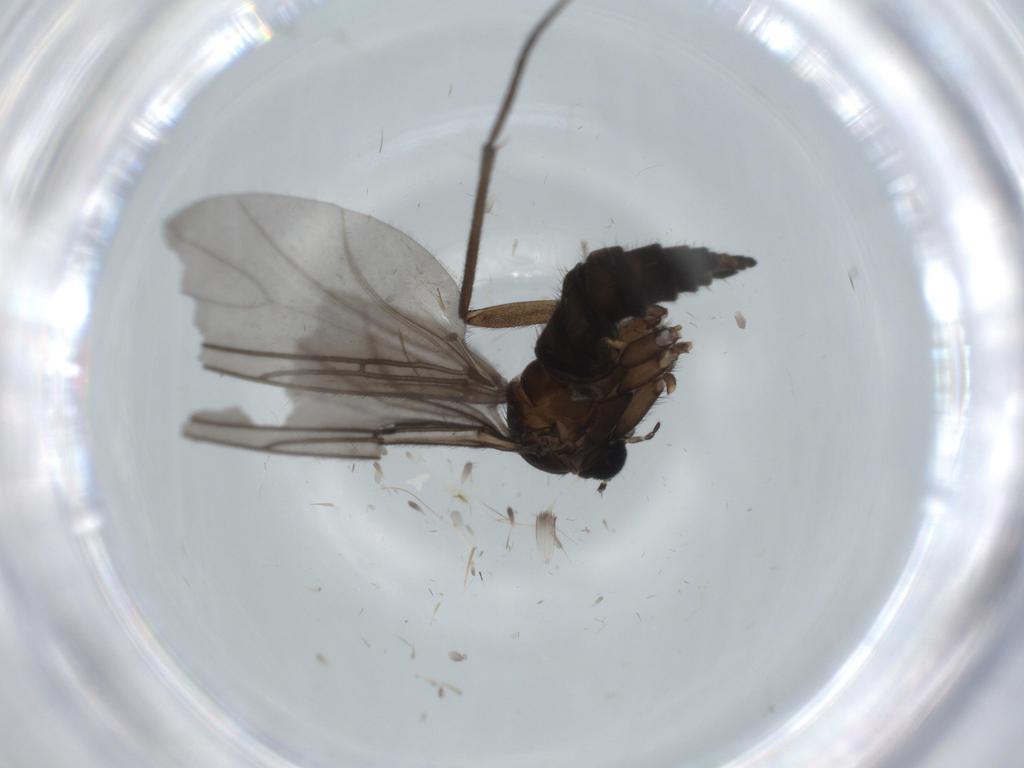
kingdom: Animalia
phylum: Arthropoda
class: Insecta
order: Diptera
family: Sciaridae
